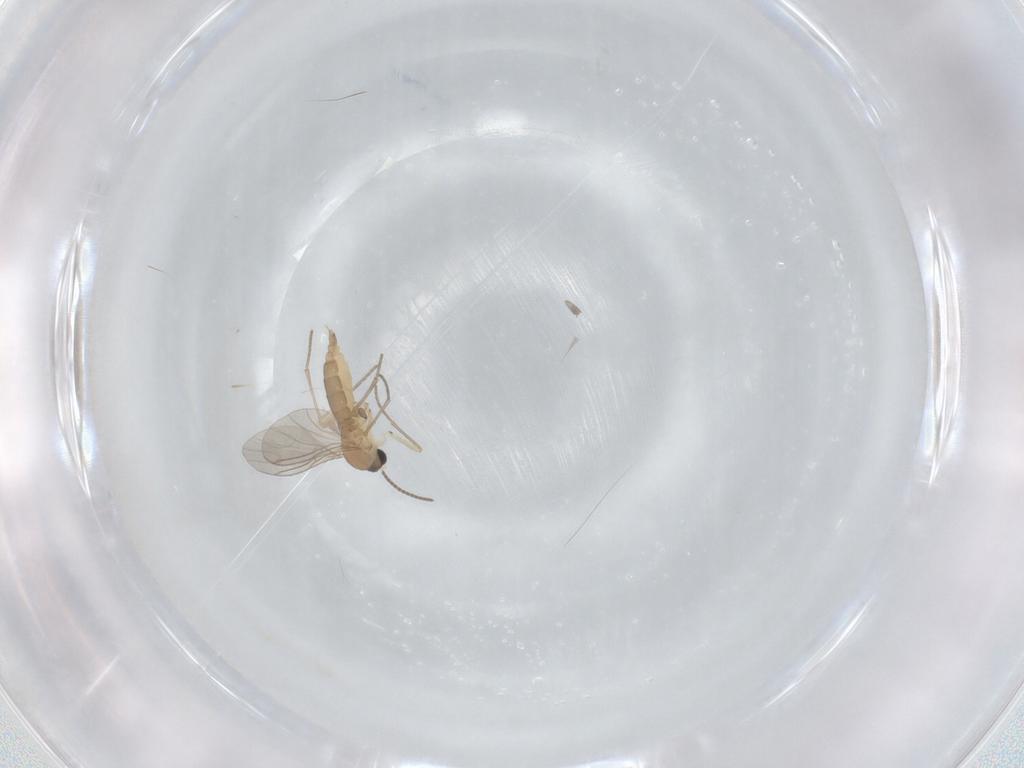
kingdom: Animalia
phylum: Arthropoda
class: Insecta
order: Diptera
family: Sciaridae
